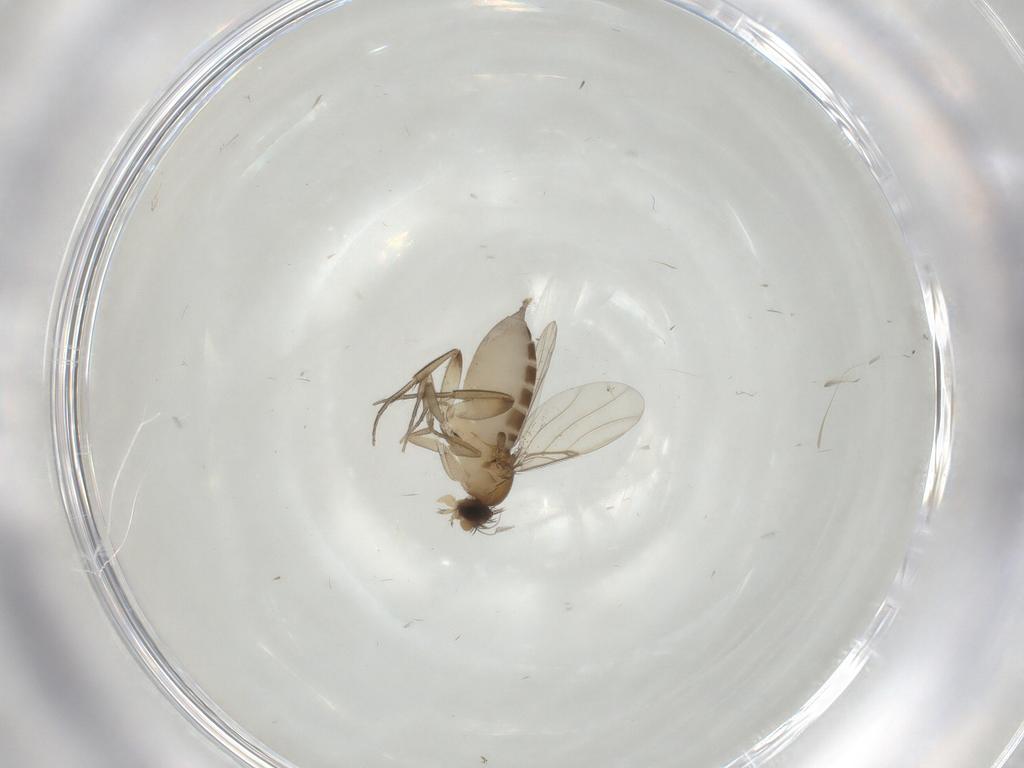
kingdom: Animalia
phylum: Arthropoda
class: Insecta
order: Diptera
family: Phoridae
